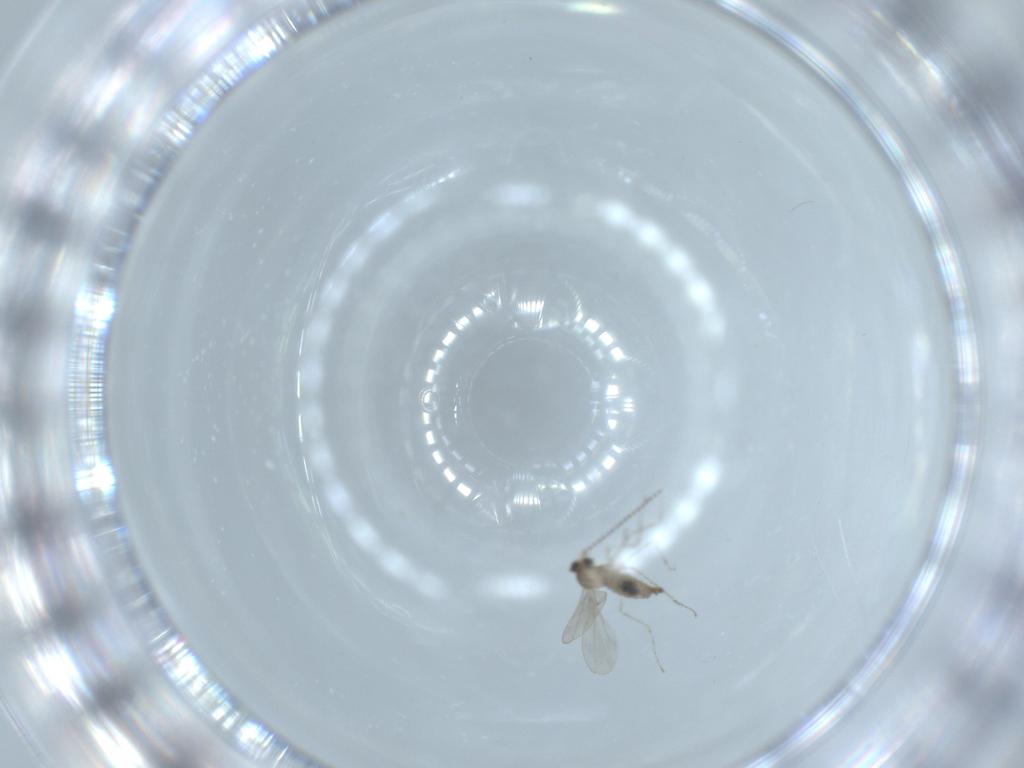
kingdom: Animalia
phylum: Arthropoda
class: Insecta
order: Diptera
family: Cecidomyiidae
